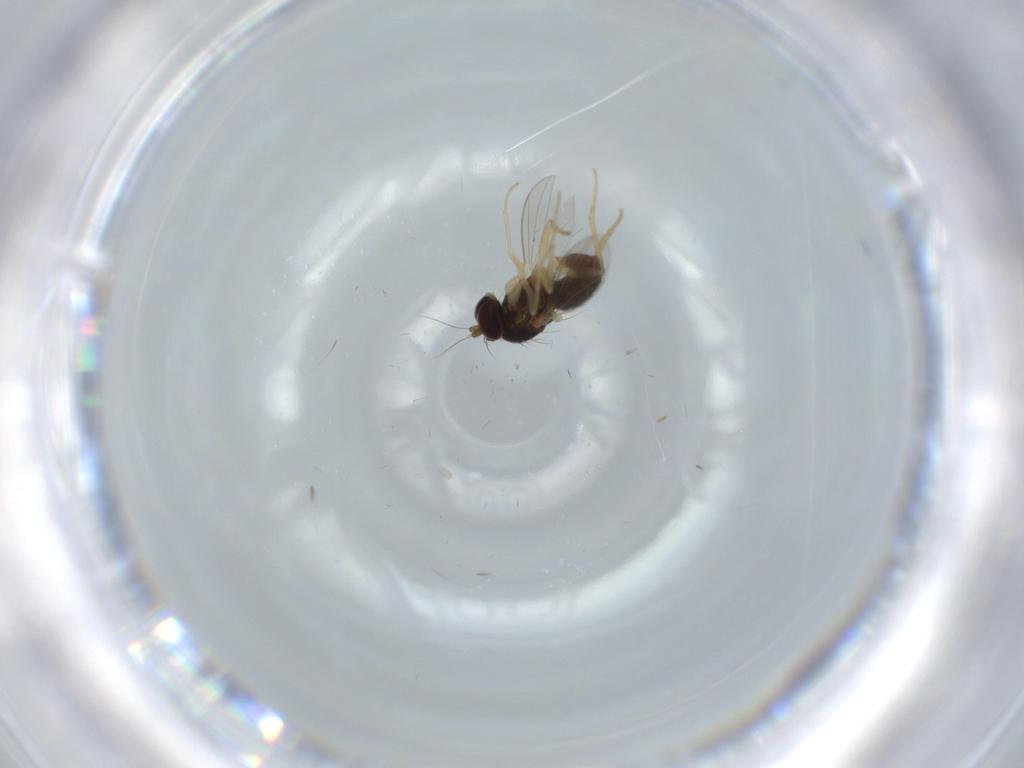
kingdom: Animalia
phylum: Arthropoda
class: Insecta
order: Diptera
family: Dolichopodidae
